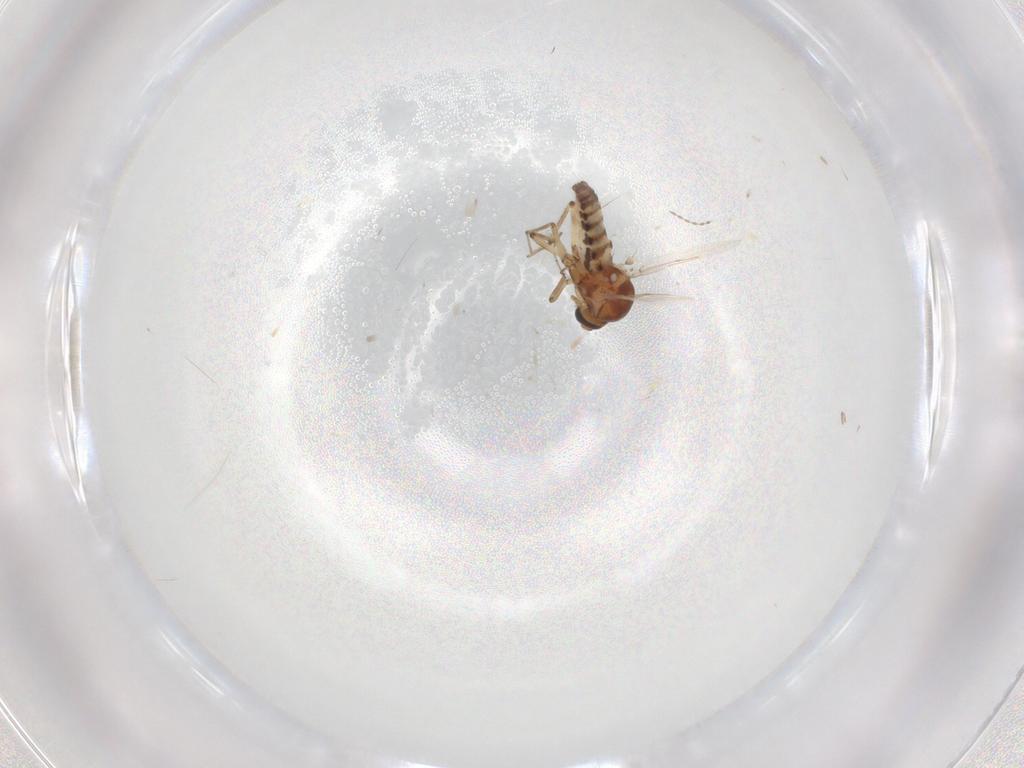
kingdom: Animalia
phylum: Arthropoda
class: Insecta
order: Diptera
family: Ceratopogonidae
